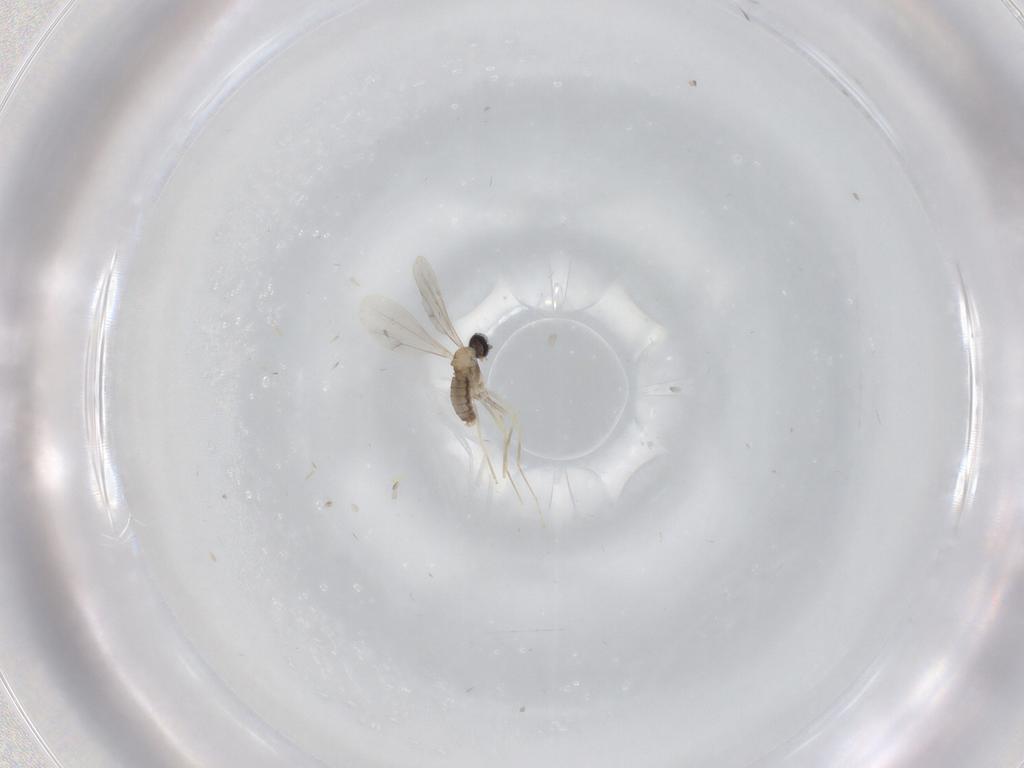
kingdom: Animalia
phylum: Arthropoda
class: Insecta
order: Diptera
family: Cecidomyiidae
